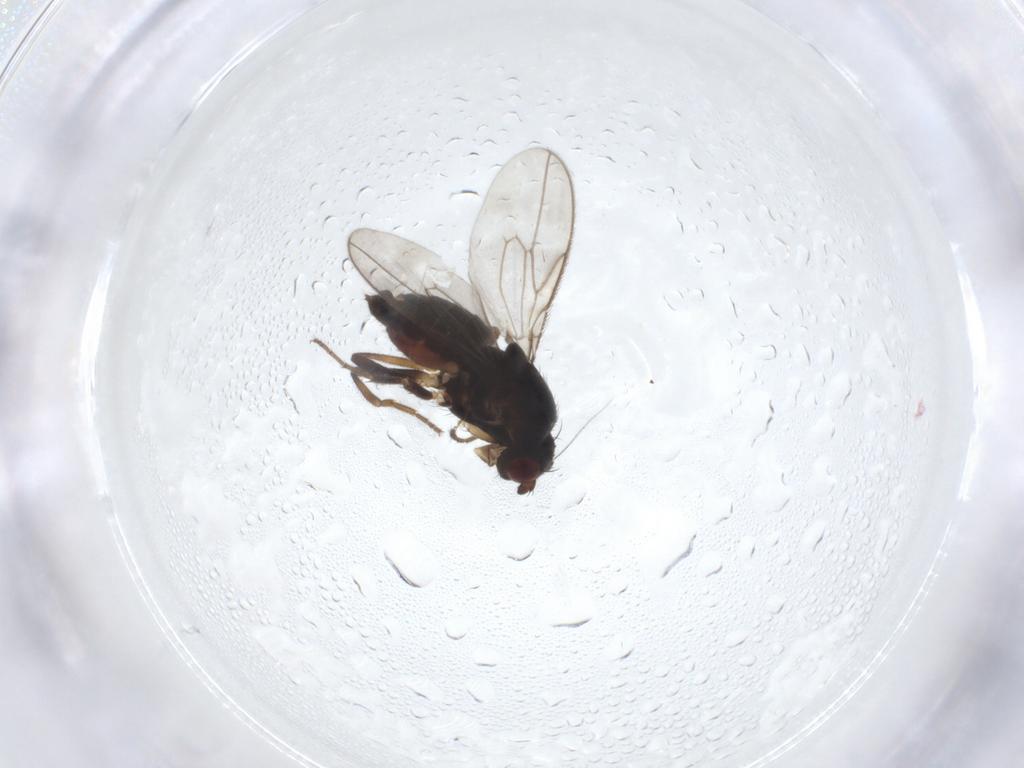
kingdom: Animalia
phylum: Arthropoda
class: Insecta
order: Diptera
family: Sphaeroceridae
